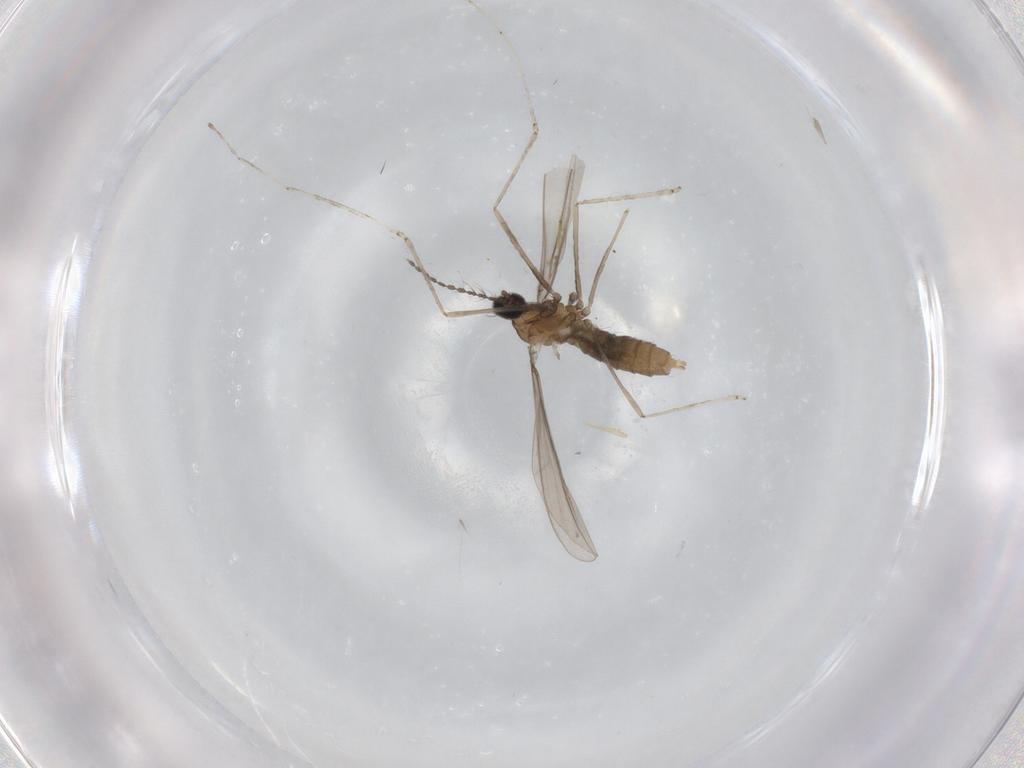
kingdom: Animalia
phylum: Arthropoda
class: Insecta
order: Diptera
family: Cecidomyiidae
